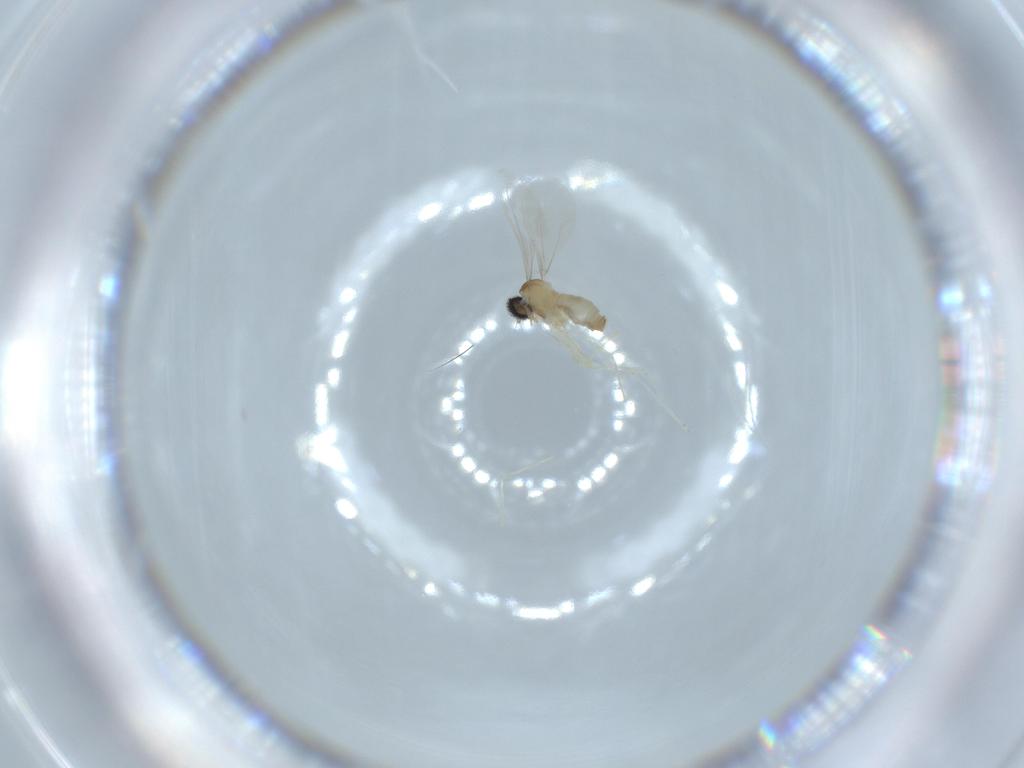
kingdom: Animalia
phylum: Arthropoda
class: Insecta
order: Diptera
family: Cecidomyiidae
